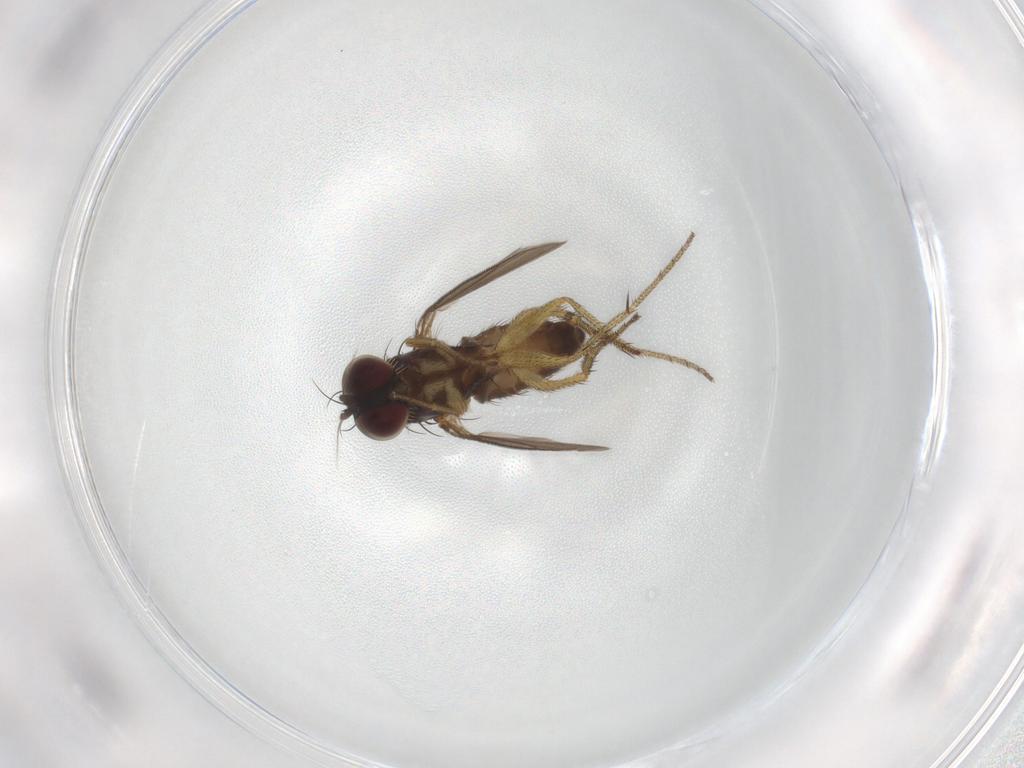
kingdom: Animalia
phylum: Arthropoda
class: Insecta
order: Diptera
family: Dolichopodidae
